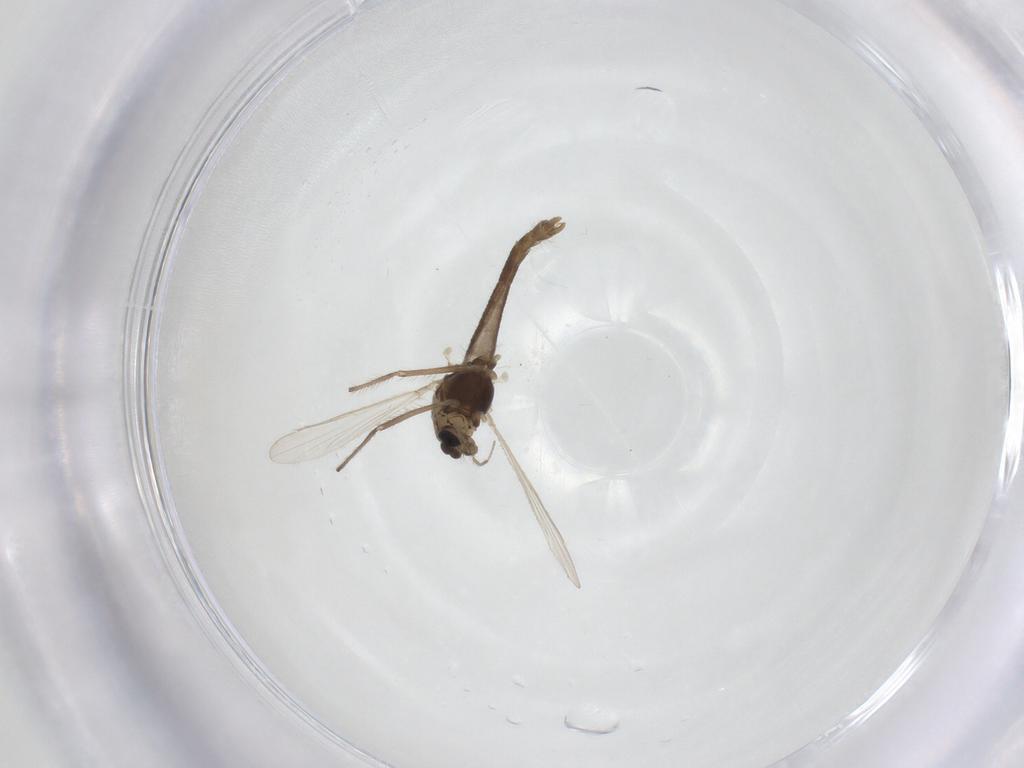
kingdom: Animalia
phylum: Arthropoda
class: Insecta
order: Diptera
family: Chironomidae
